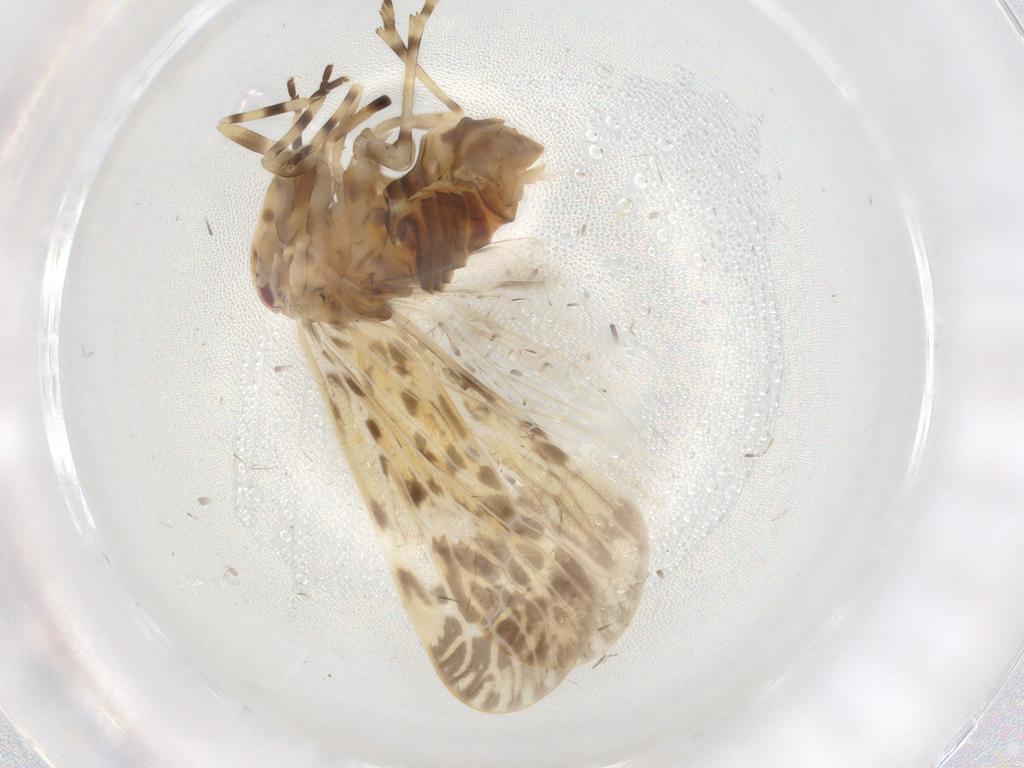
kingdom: Animalia
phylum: Arthropoda
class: Insecta
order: Hemiptera
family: Derbidae
